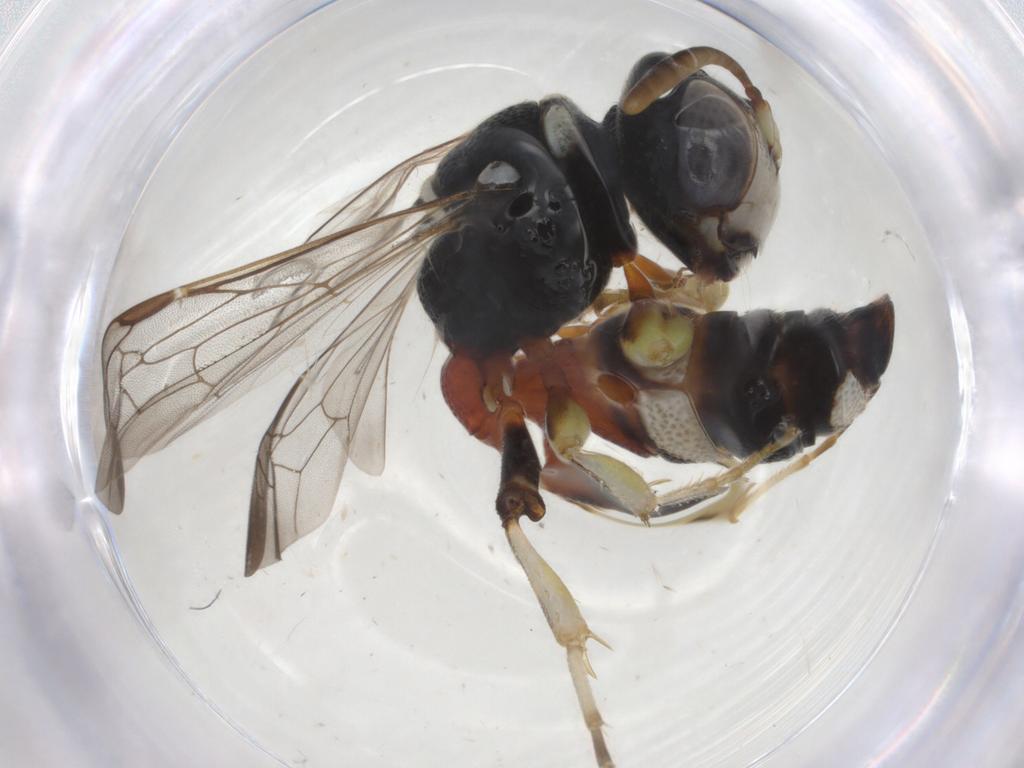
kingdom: Animalia
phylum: Arthropoda
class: Insecta
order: Hymenoptera
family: Crabronidae
